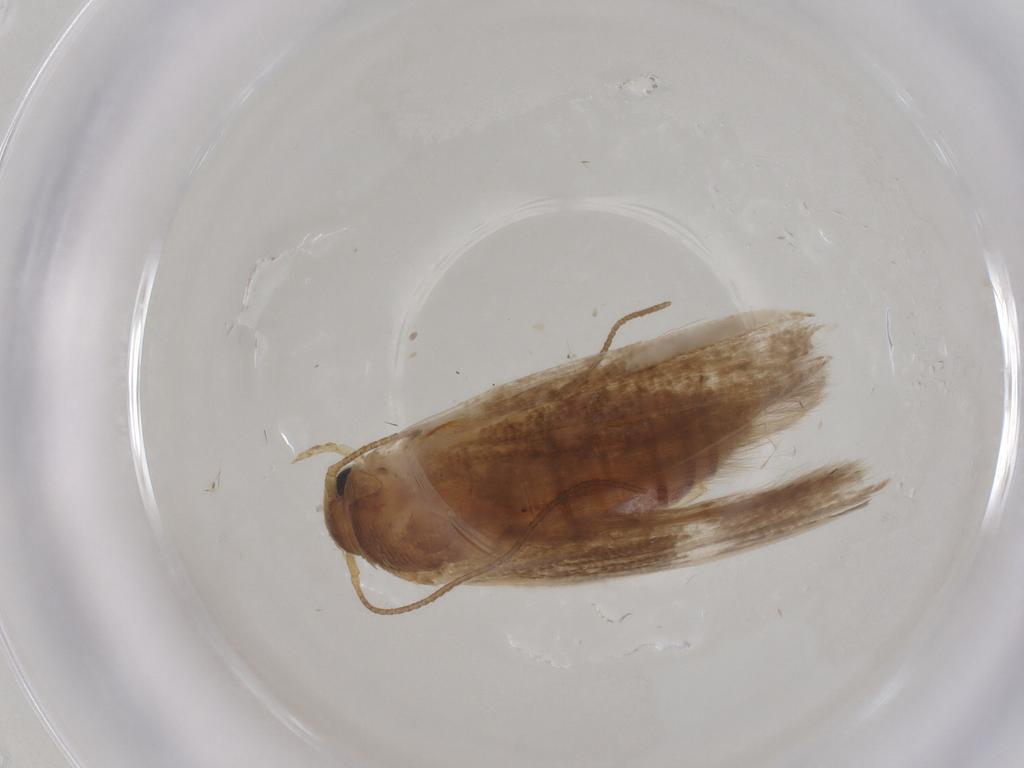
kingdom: Animalia
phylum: Arthropoda
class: Insecta
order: Lepidoptera
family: Blastobasidae
